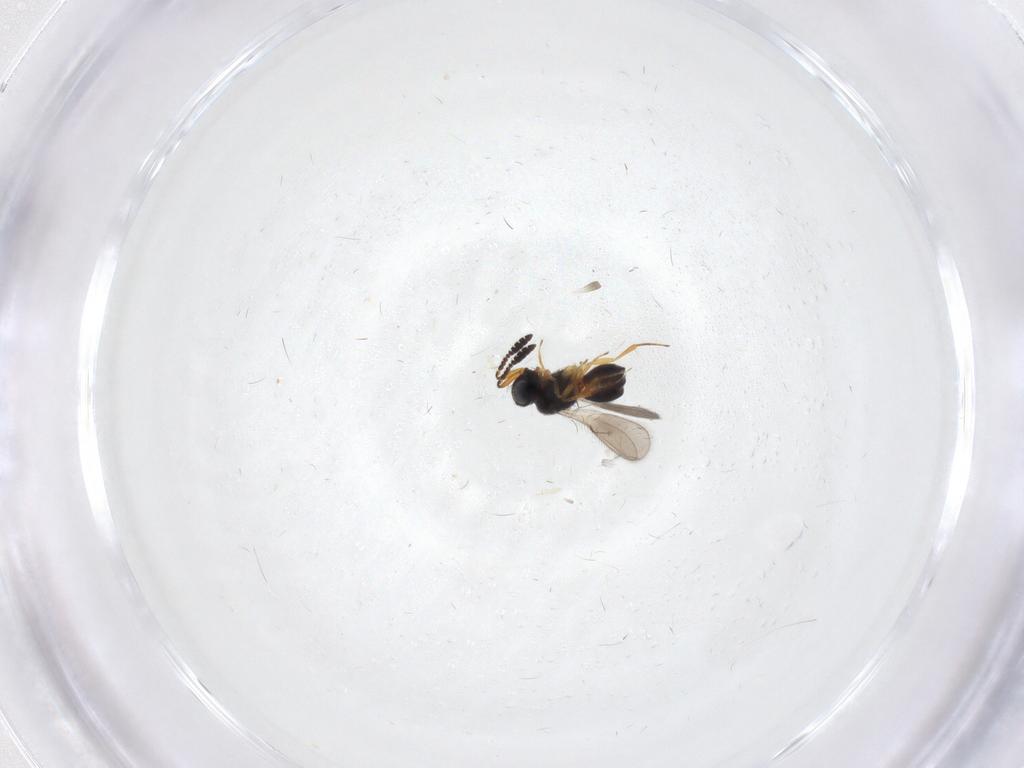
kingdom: Animalia
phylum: Arthropoda
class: Insecta
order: Hymenoptera
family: Scelionidae
